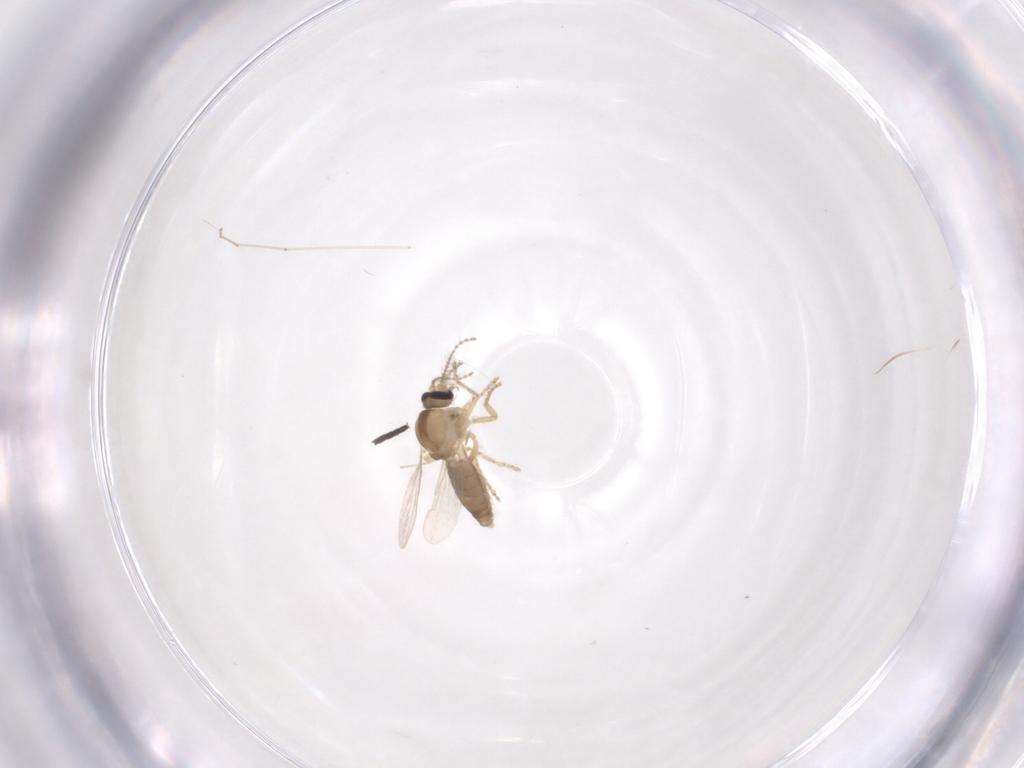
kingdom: Animalia
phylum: Arthropoda
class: Insecta
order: Diptera
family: Ceratopogonidae
